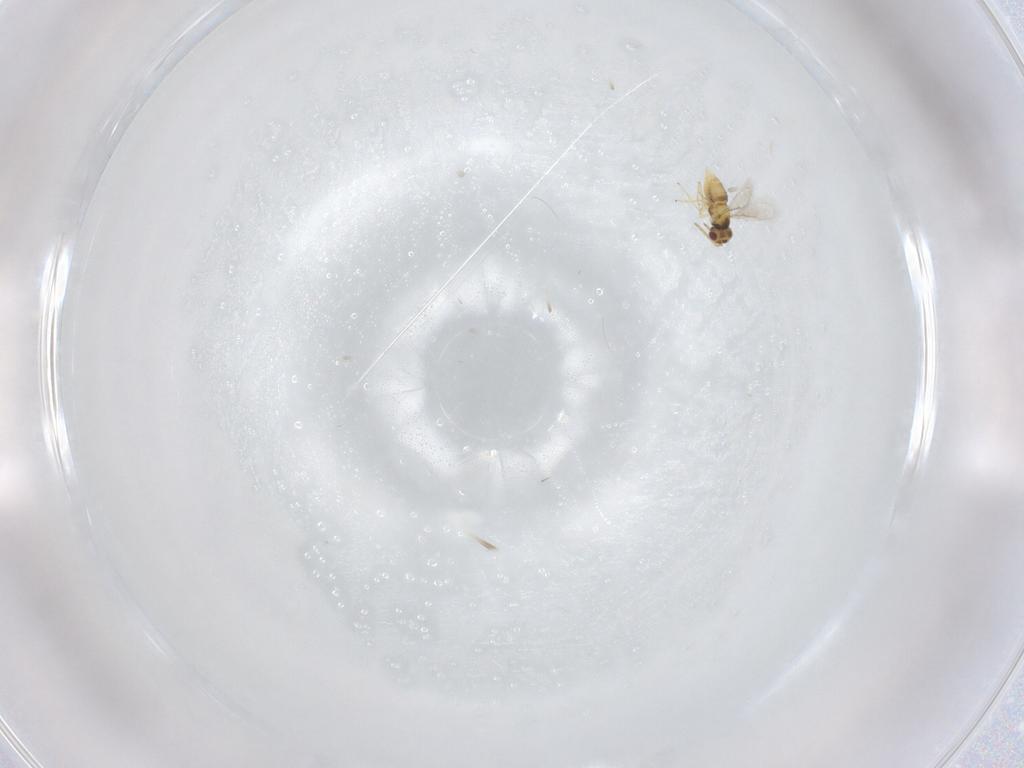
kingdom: Animalia
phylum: Arthropoda
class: Insecta
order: Hymenoptera
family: Aphelinidae
